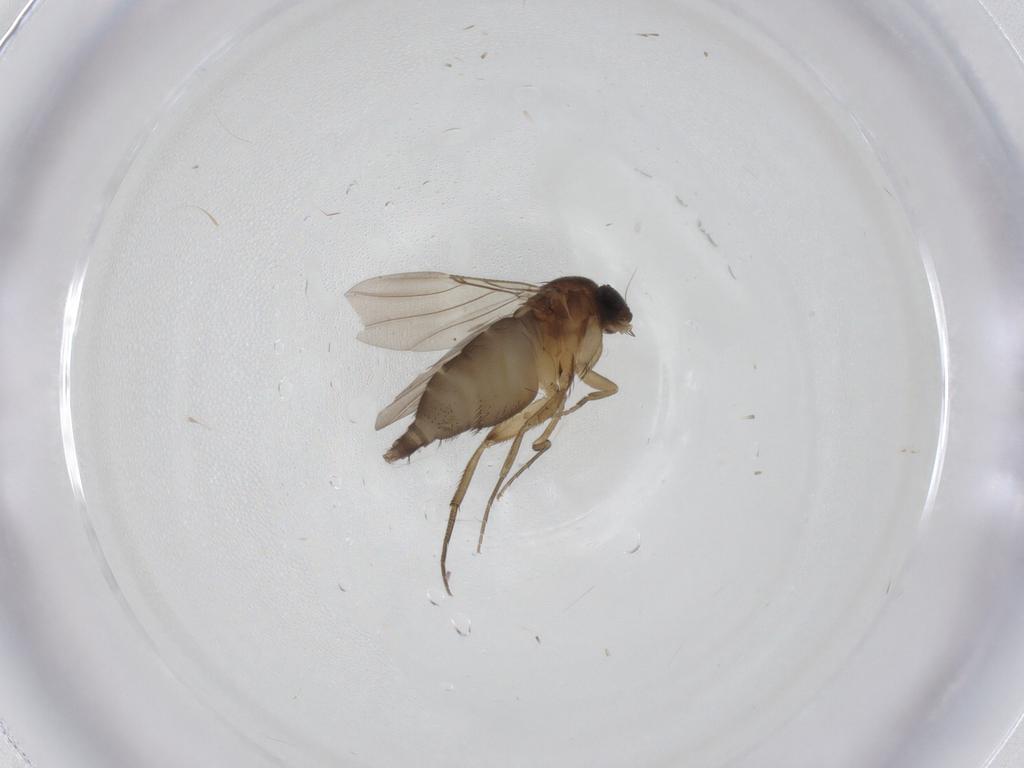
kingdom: Animalia
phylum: Arthropoda
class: Insecta
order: Diptera
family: Phoridae
